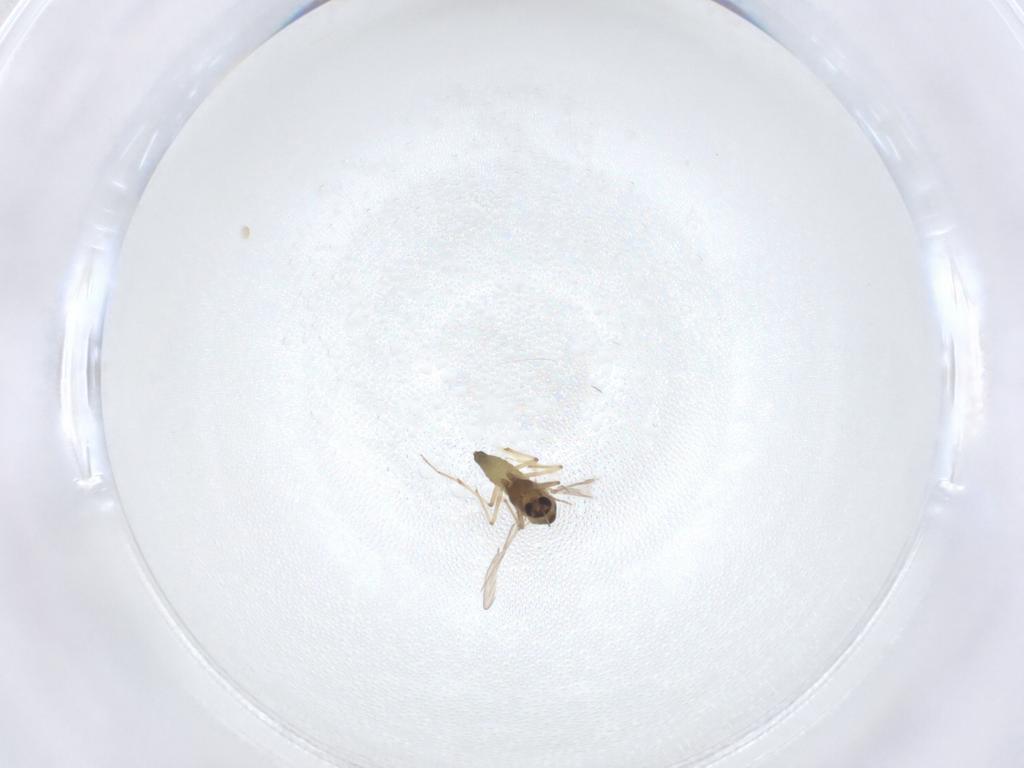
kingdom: Animalia
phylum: Arthropoda
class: Insecta
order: Diptera
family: Chironomidae
